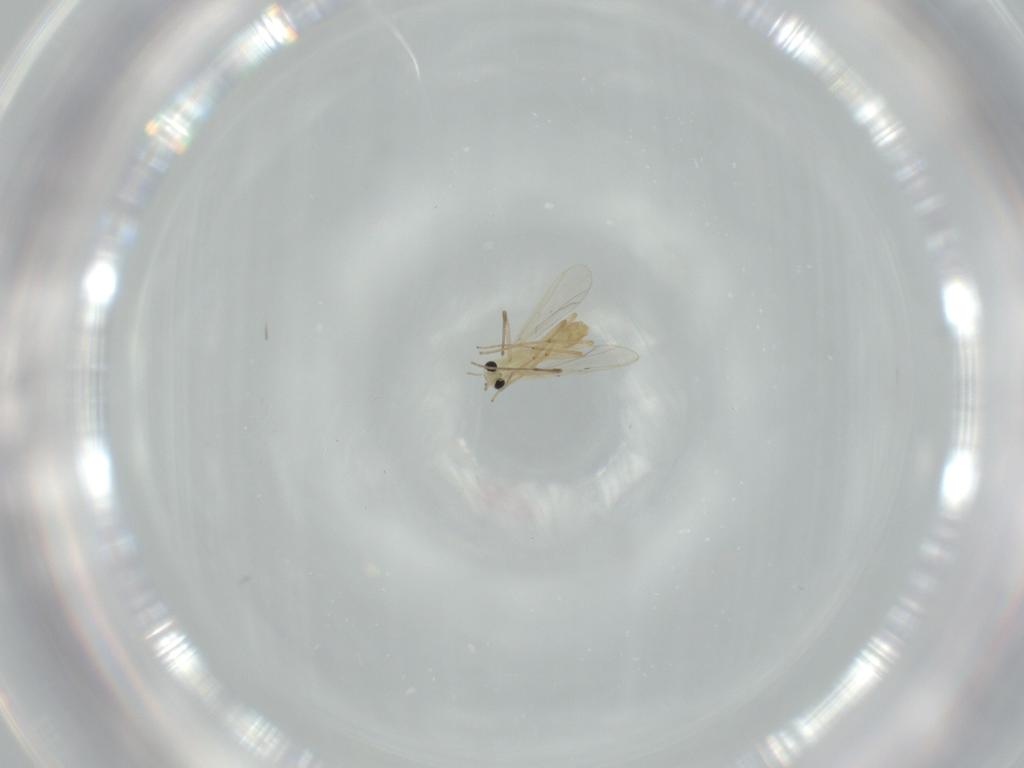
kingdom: Animalia
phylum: Arthropoda
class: Insecta
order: Diptera
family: Chironomidae
